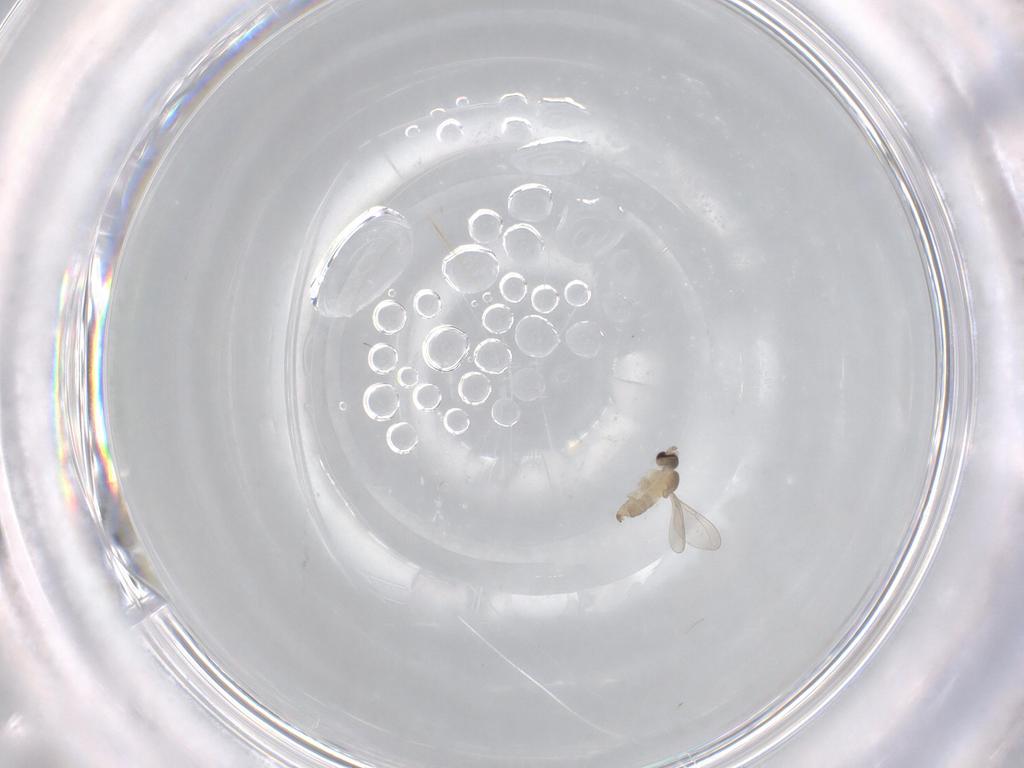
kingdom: Animalia
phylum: Arthropoda
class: Insecta
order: Diptera
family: Cecidomyiidae
